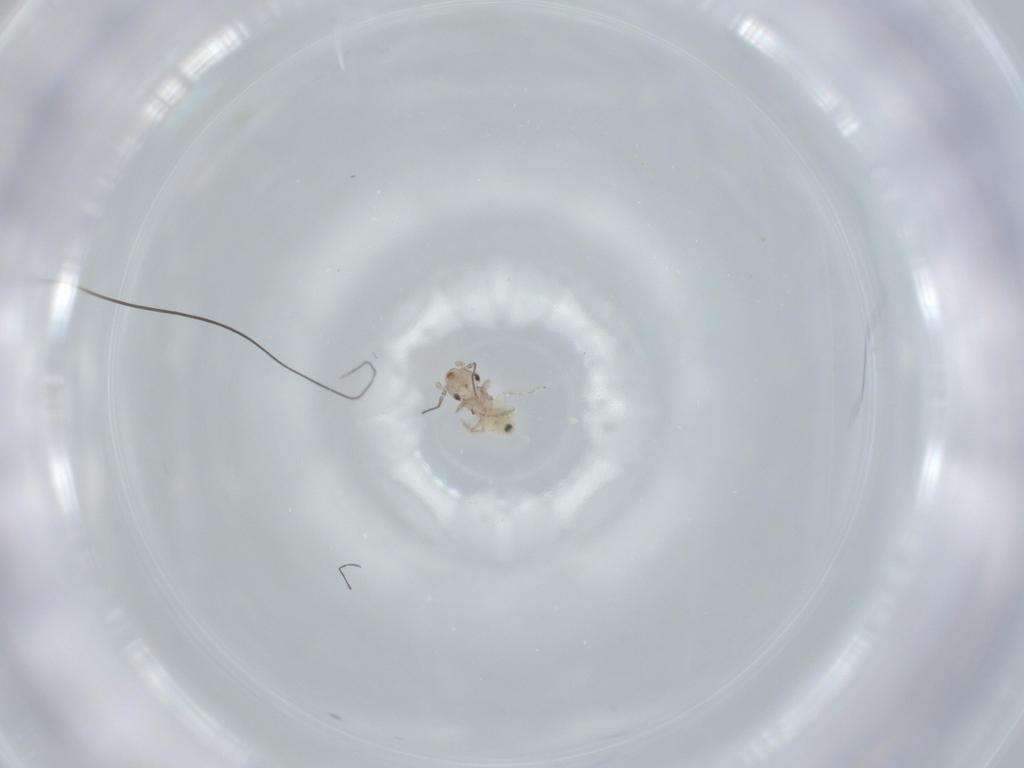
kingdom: Animalia
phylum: Arthropoda
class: Insecta
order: Psocodea
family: Lepidopsocidae
